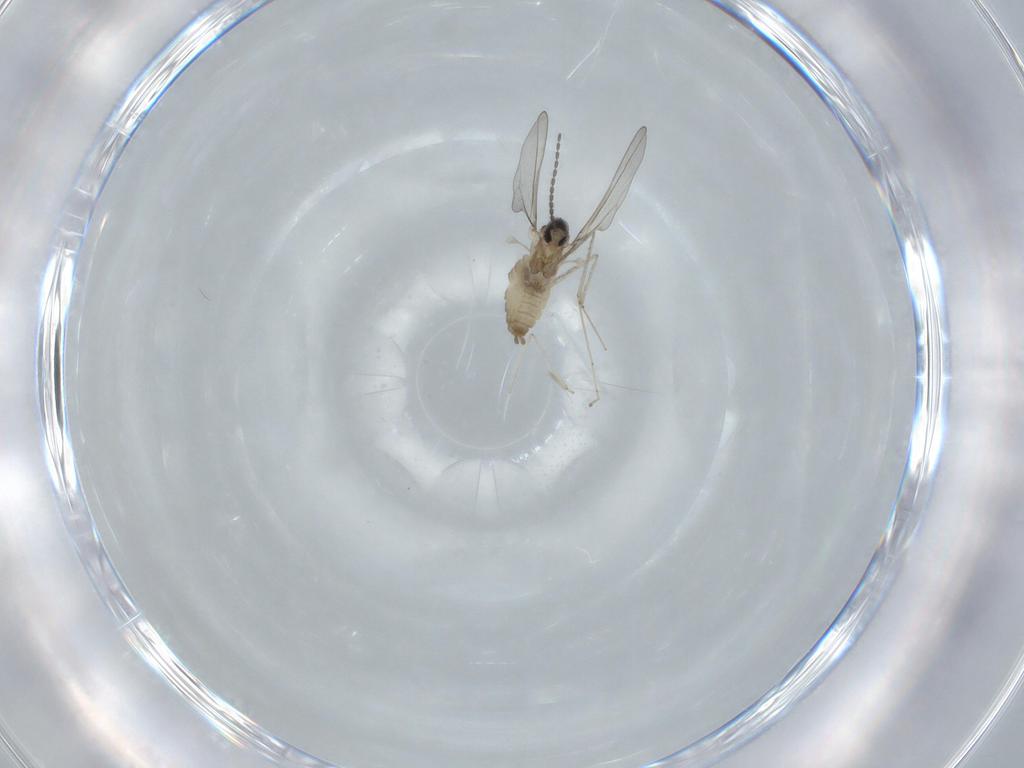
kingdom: Animalia
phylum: Arthropoda
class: Insecta
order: Diptera
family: Cecidomyiidae
